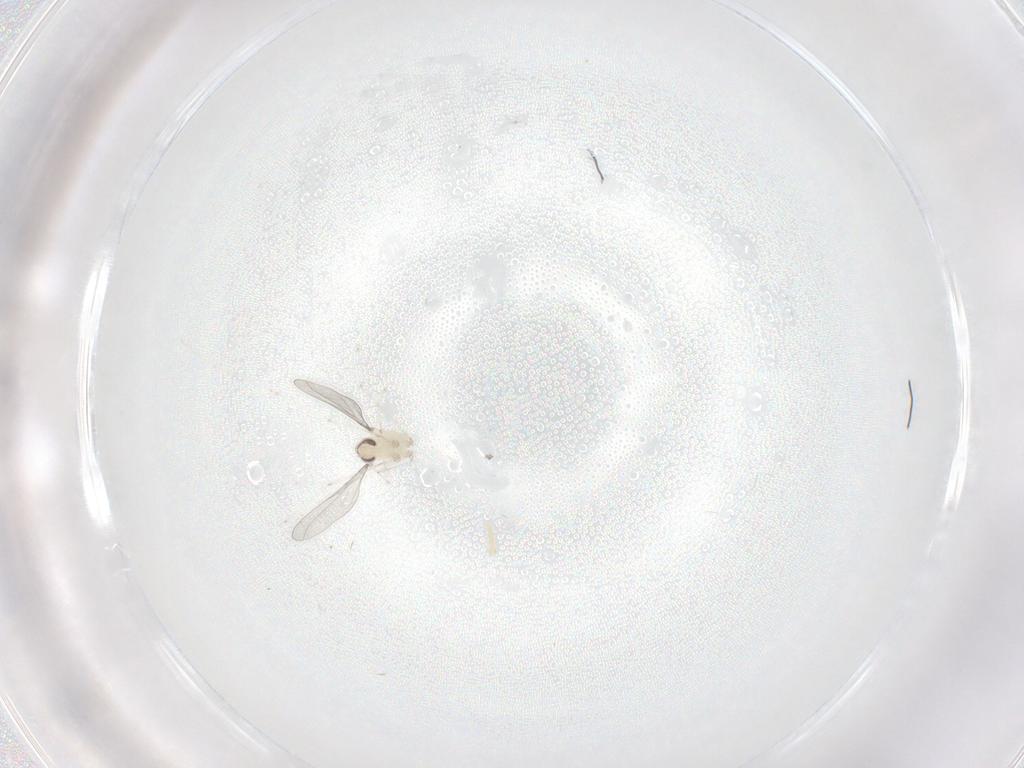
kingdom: Animalia
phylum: Arthropoda
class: Insecta
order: Diptera
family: Cecidomyiidae
